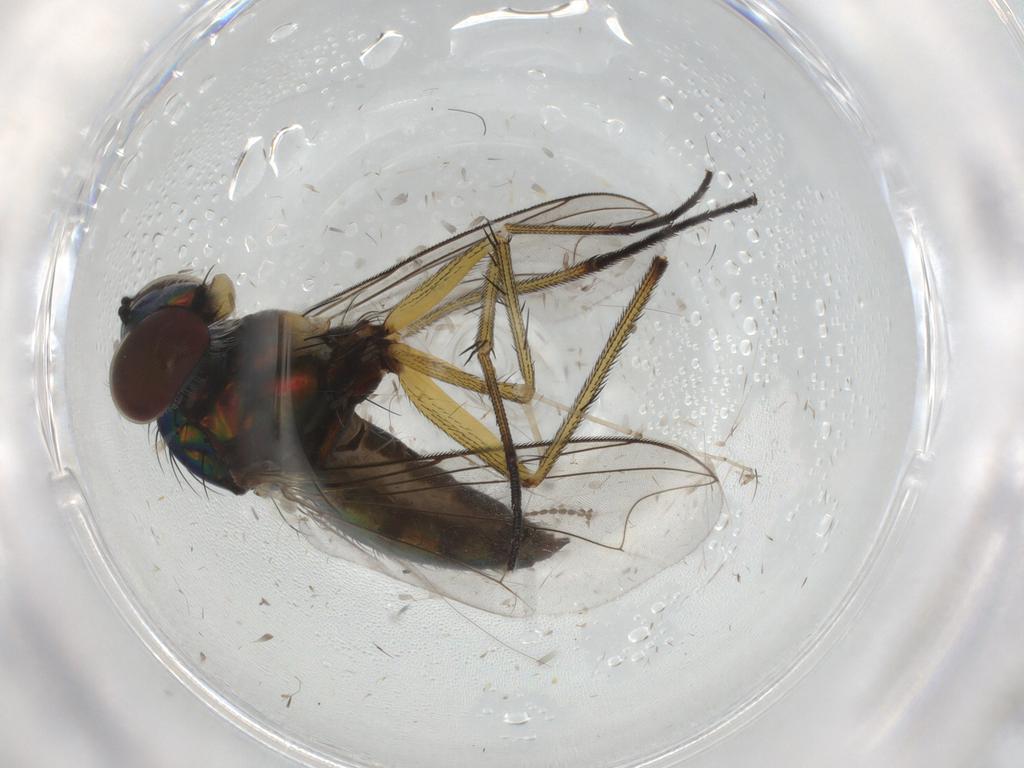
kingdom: Animalia
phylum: Arthropoda
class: Insecta
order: Diptera
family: Dolichopodidae
